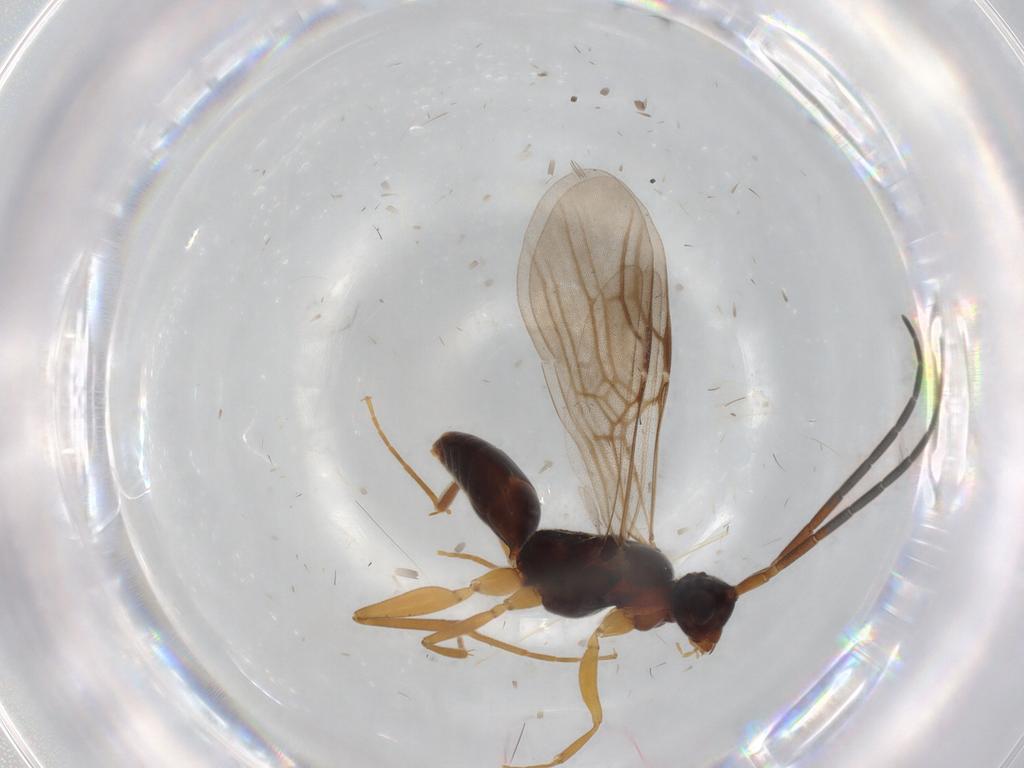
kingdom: Animalia
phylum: Arthropoda
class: Insecta
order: Hymenoptera
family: Embolemidae
